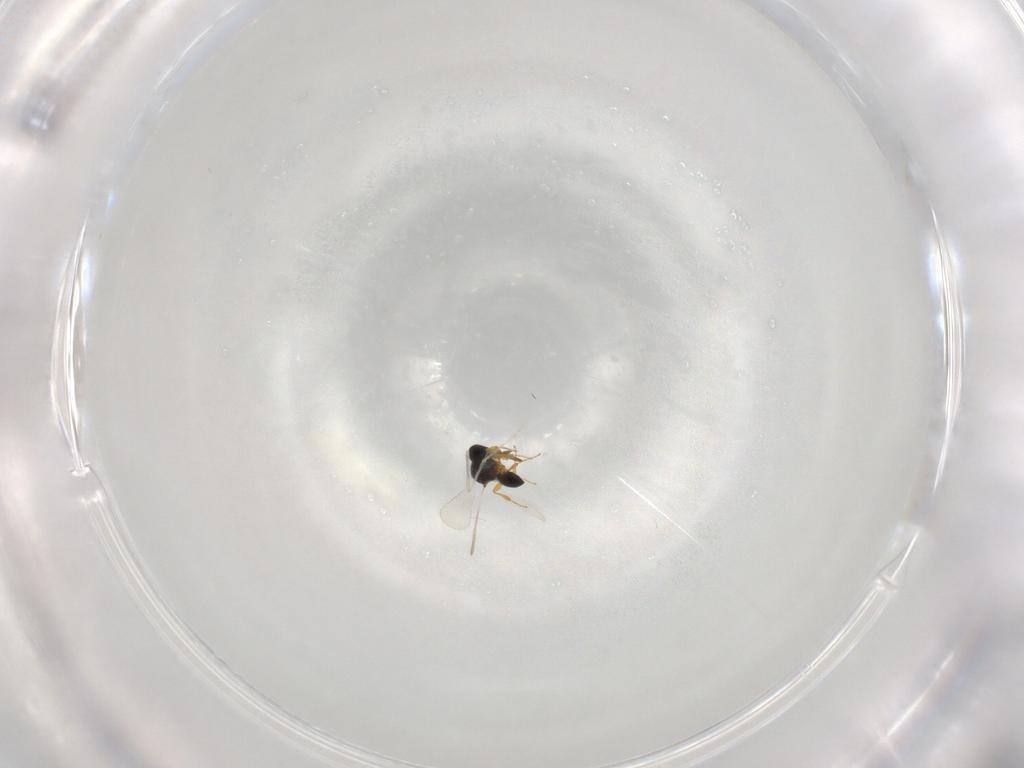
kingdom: Animalia
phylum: Arthropoda
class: Insecta
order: Hymenoptera
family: Platygastridae
